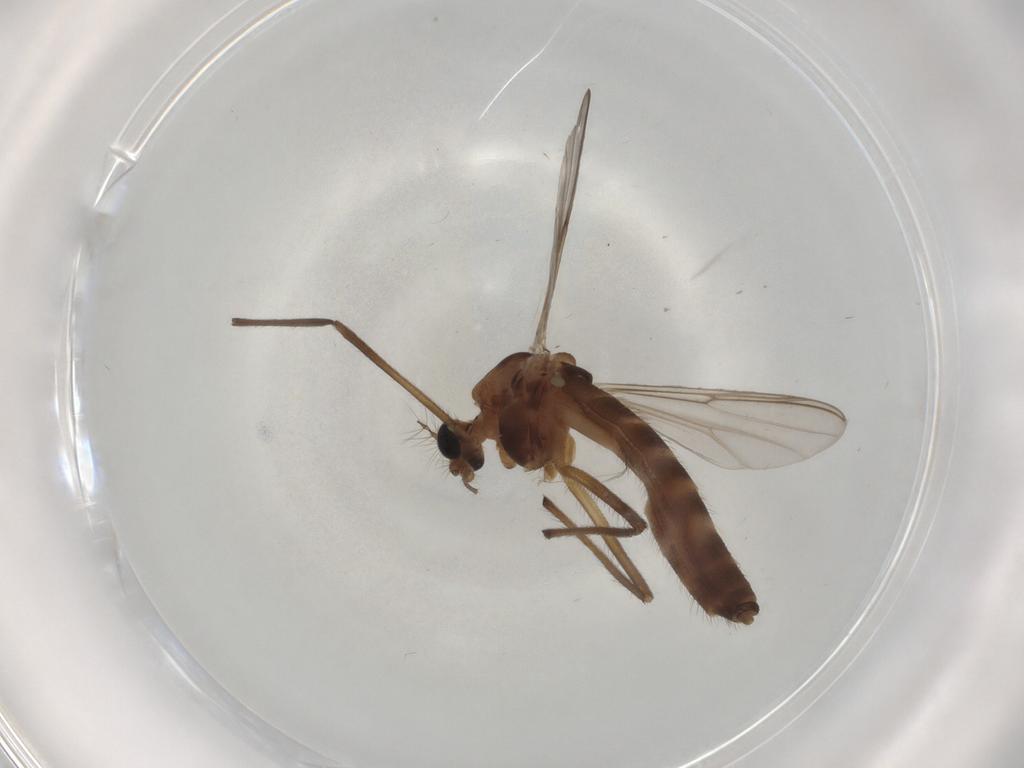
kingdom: Animalia
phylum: Arthropoda
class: Insecta
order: Diptera
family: Chironomidae
